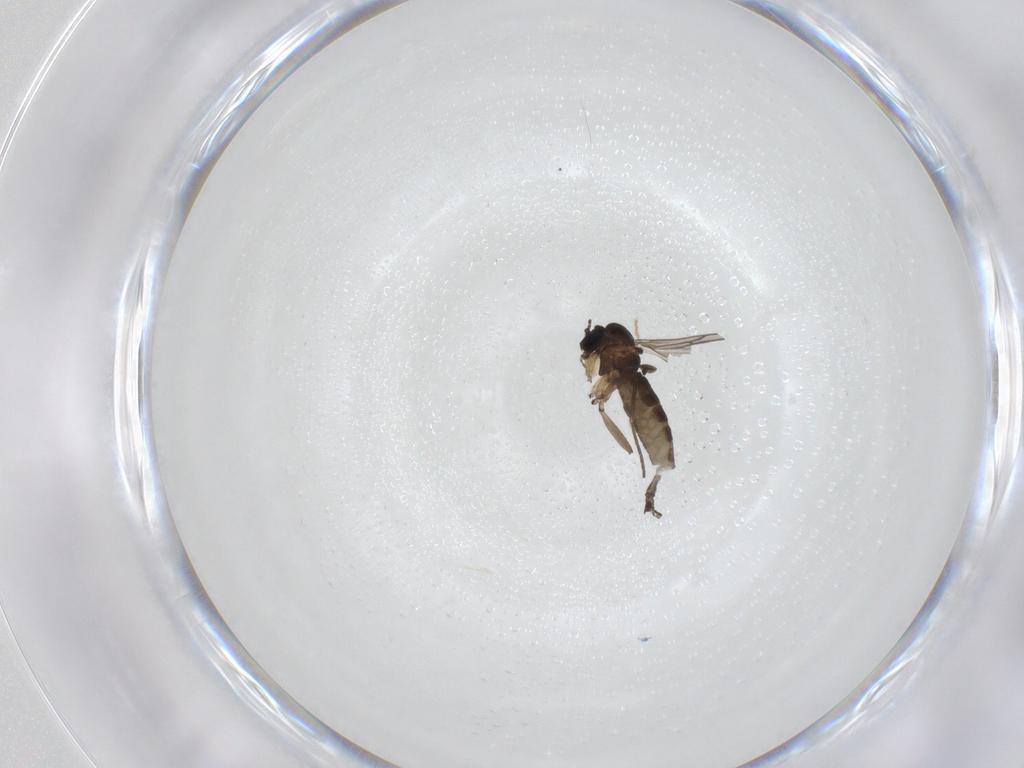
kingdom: Animalia
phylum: Arthropoda
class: Insecta
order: Diptera
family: Sciaridae
